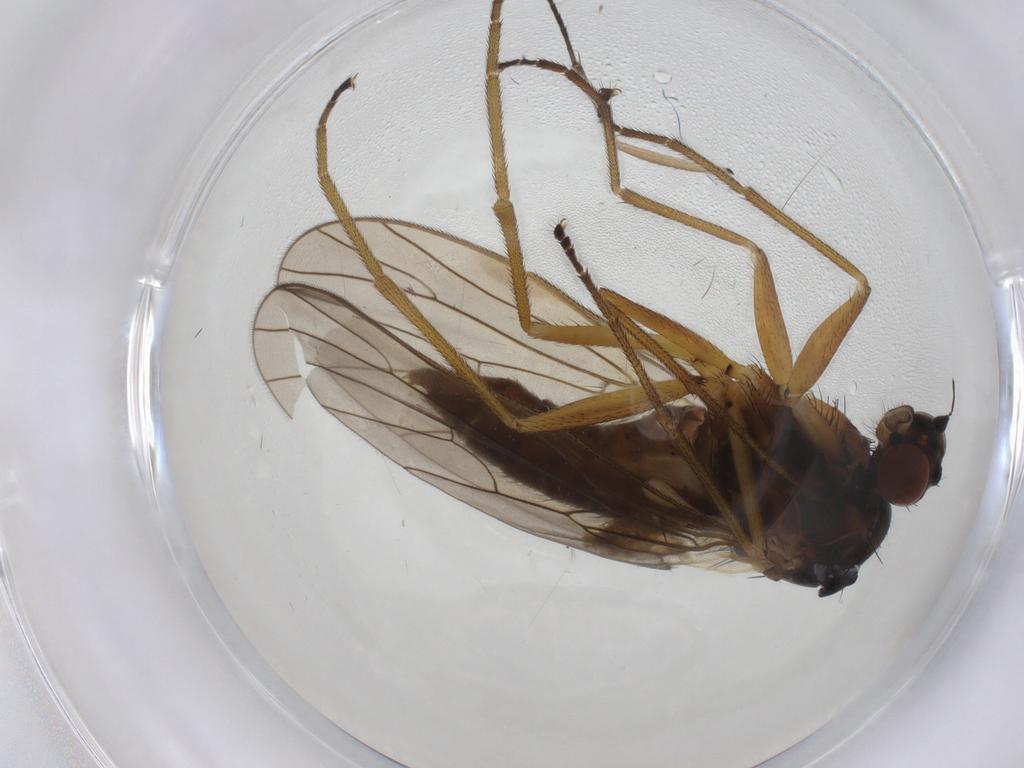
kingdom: Animalia
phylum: Arthropoda
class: Insecta
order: Diptera
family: Brachystomatidae
